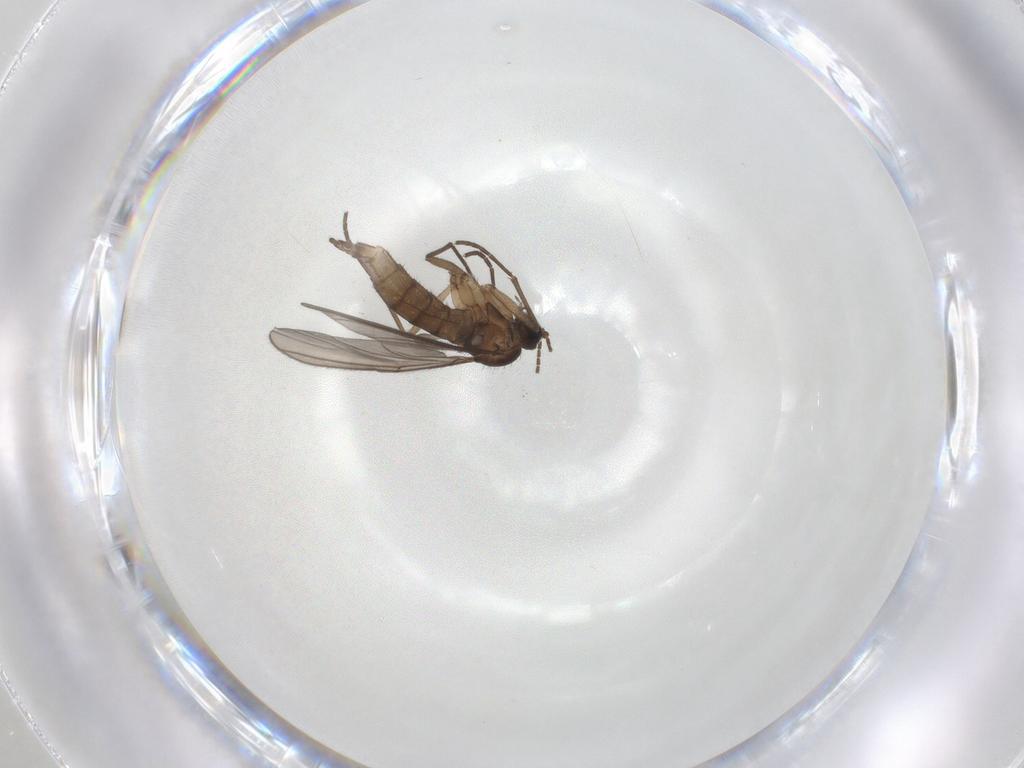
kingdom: Animalia
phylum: Arthropoda
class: Insecta
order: Diptera
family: Sciaridae
